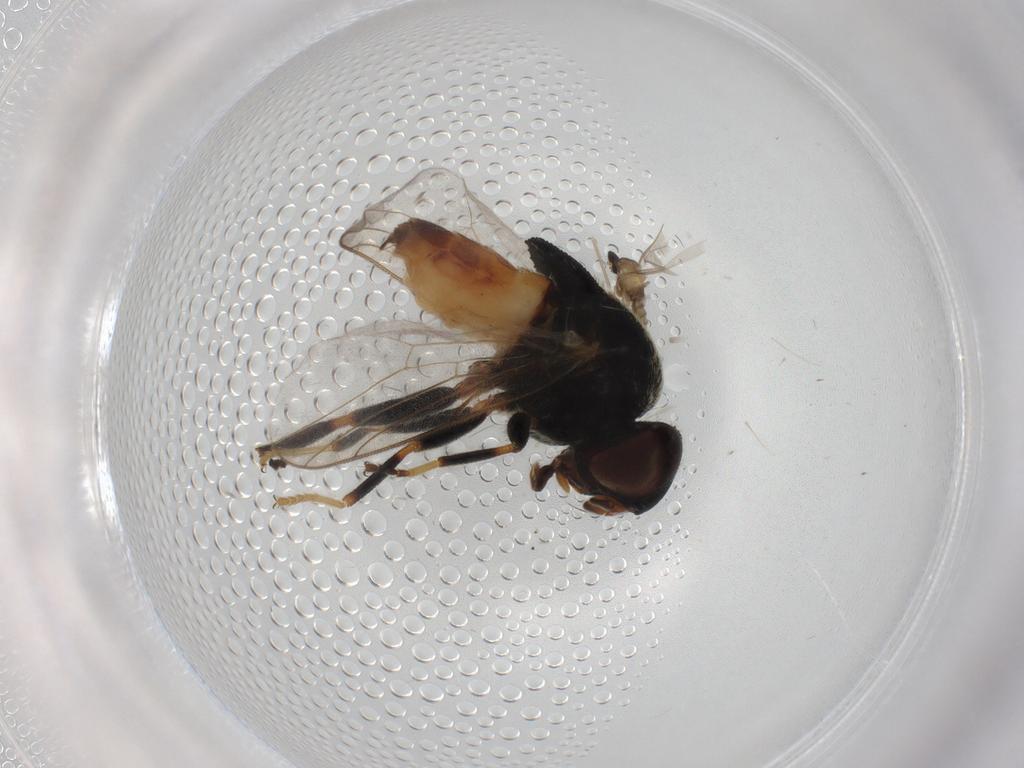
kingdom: Animalia
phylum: Arthropoda
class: Insecta
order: Diptera
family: Chloropidae
